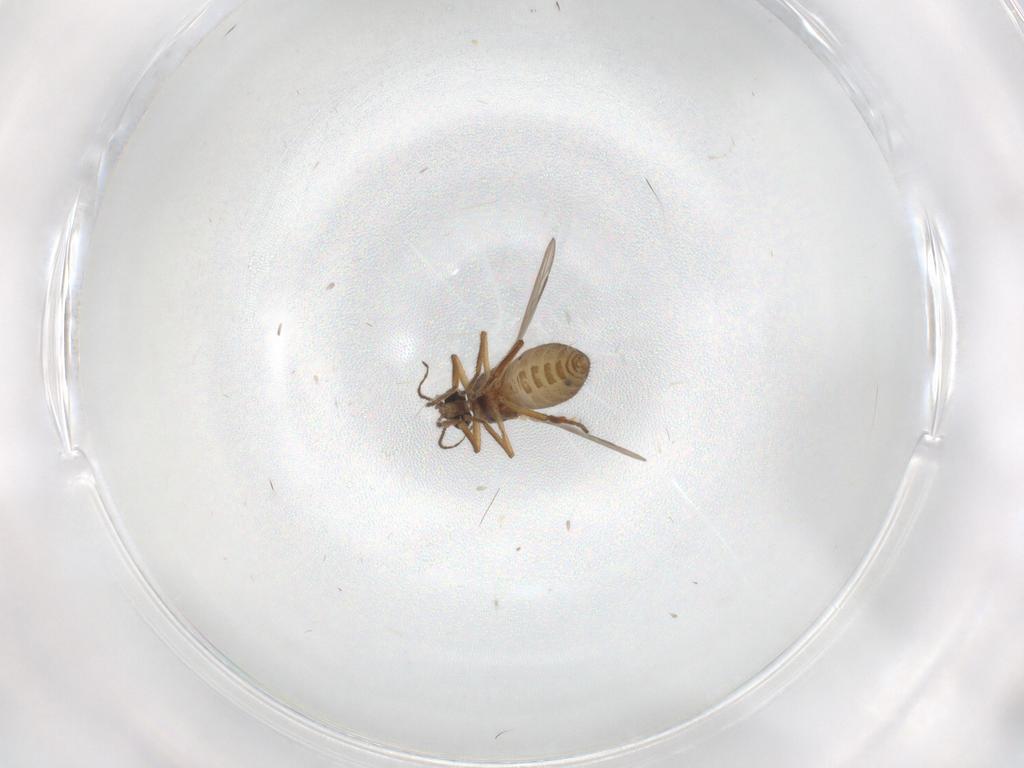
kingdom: Animalia
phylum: Arthropoda
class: Insecta
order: Diptera
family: Ceratopogonidae
